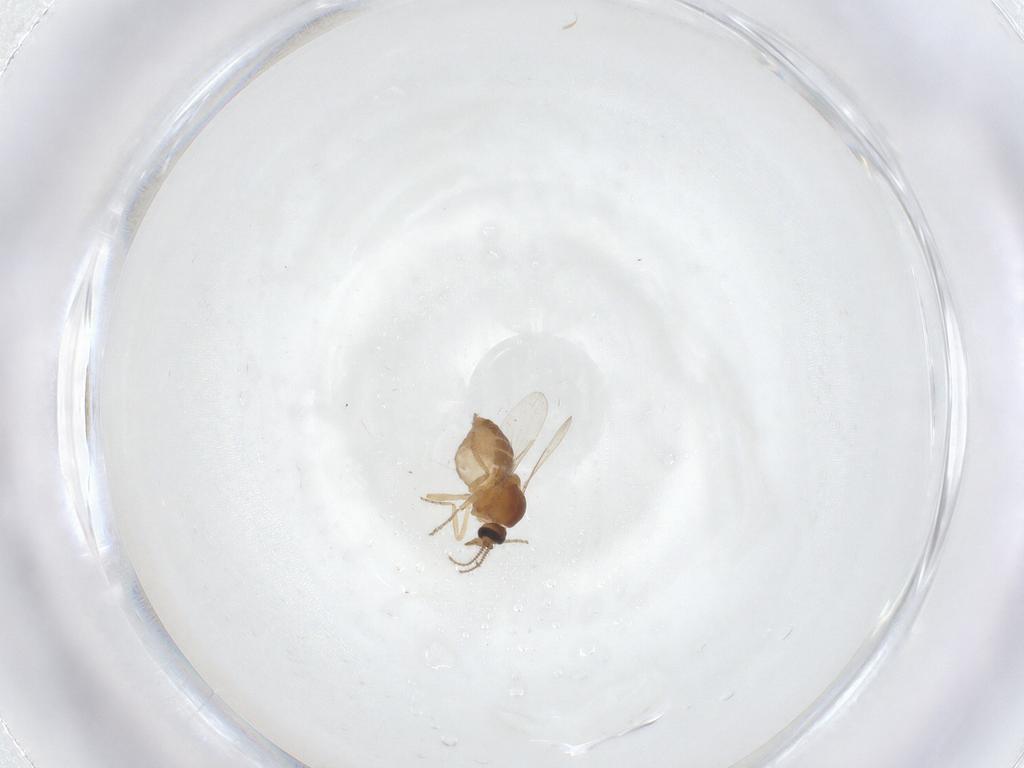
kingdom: Animalia
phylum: Arthropoda
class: Insecta
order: Diptera
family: Ceratopogonidae
